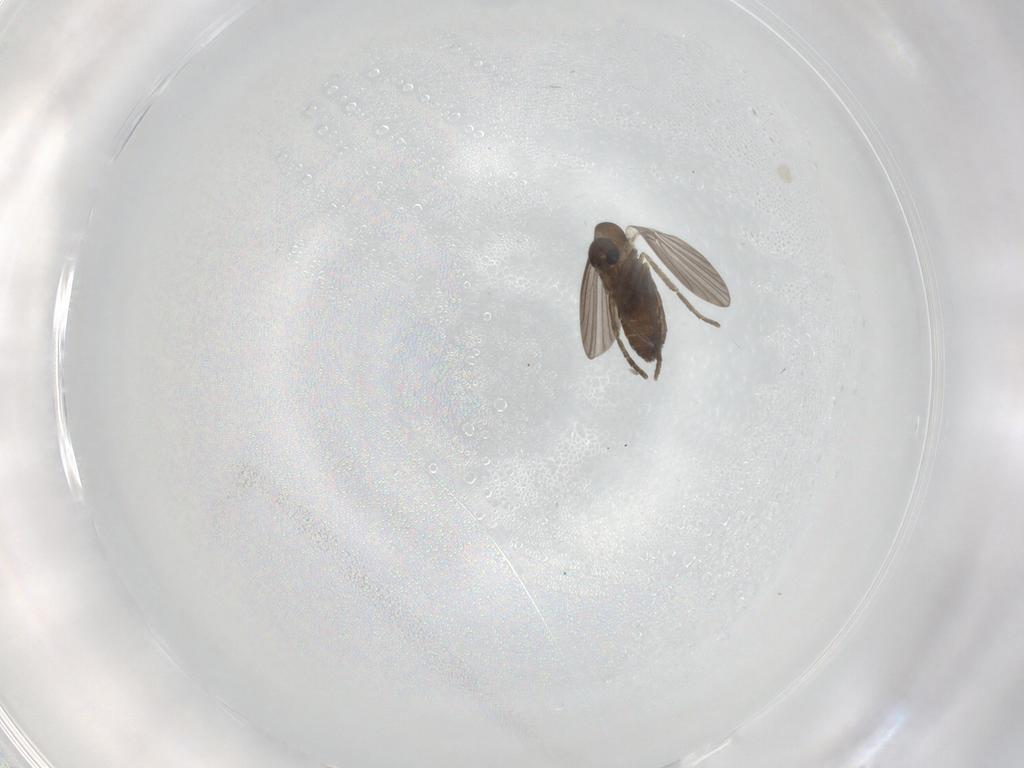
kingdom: Animalia
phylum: Arthropoda
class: Insecta
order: Diptera
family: Psychodidae
